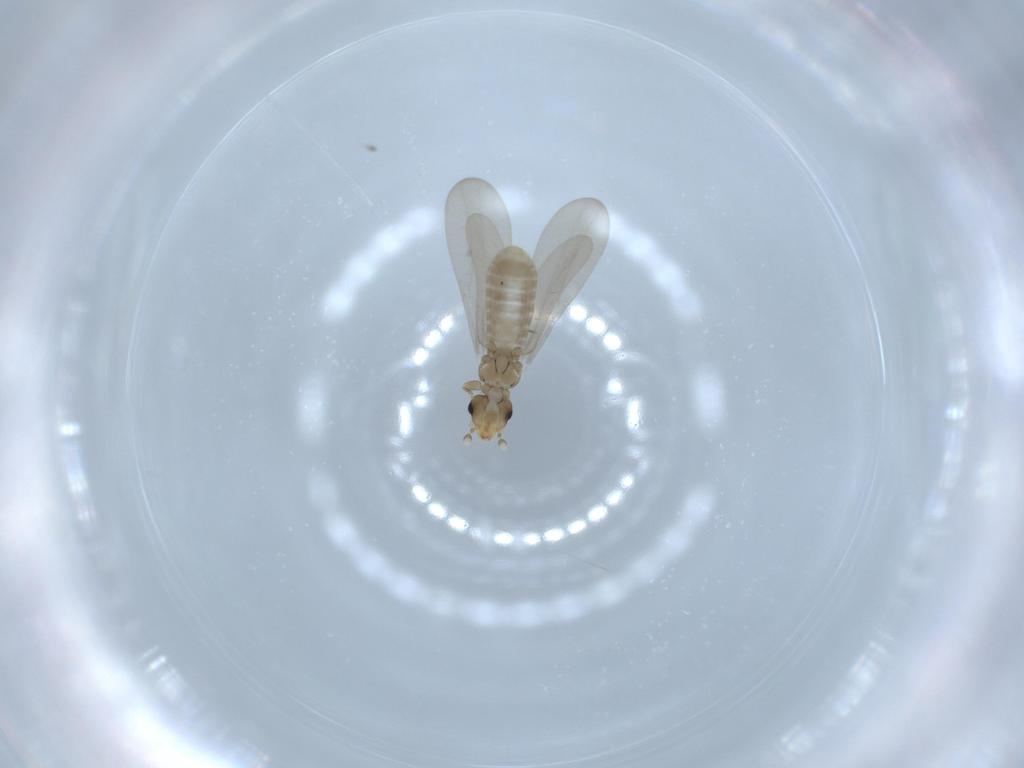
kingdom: Animalia
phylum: Arthropoda
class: Insecta
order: Psocodea
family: Liposcelididae
